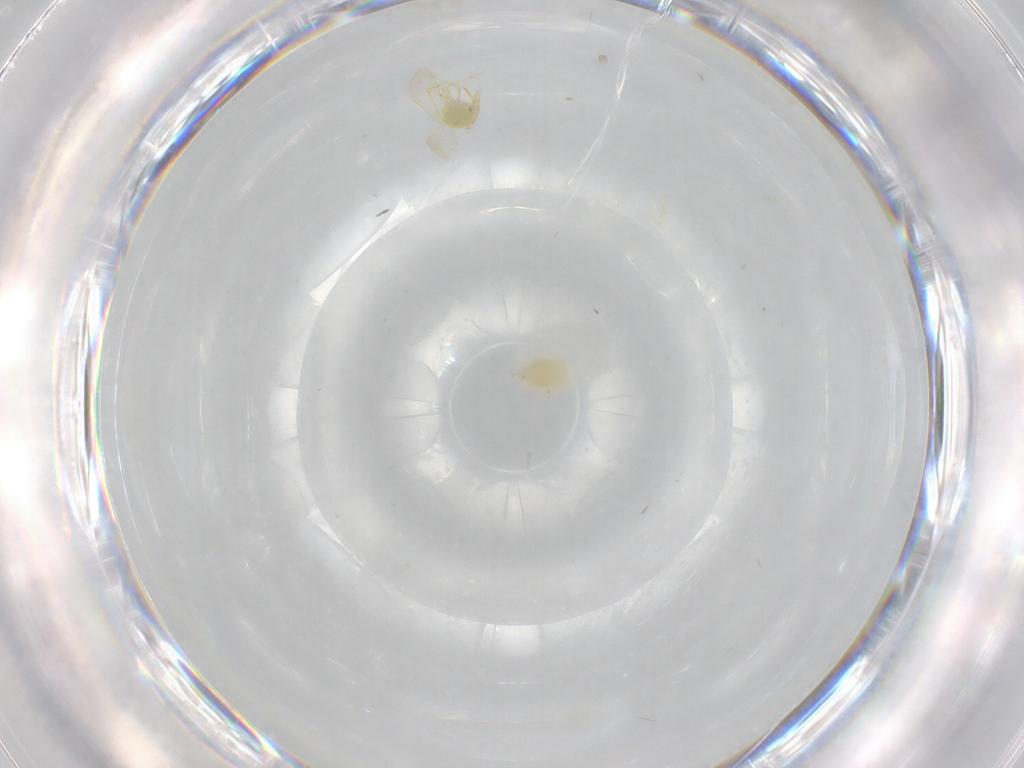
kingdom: Animalia
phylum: Arthropoda
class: Insecta
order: Hemiptera
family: Aleyrodidae
